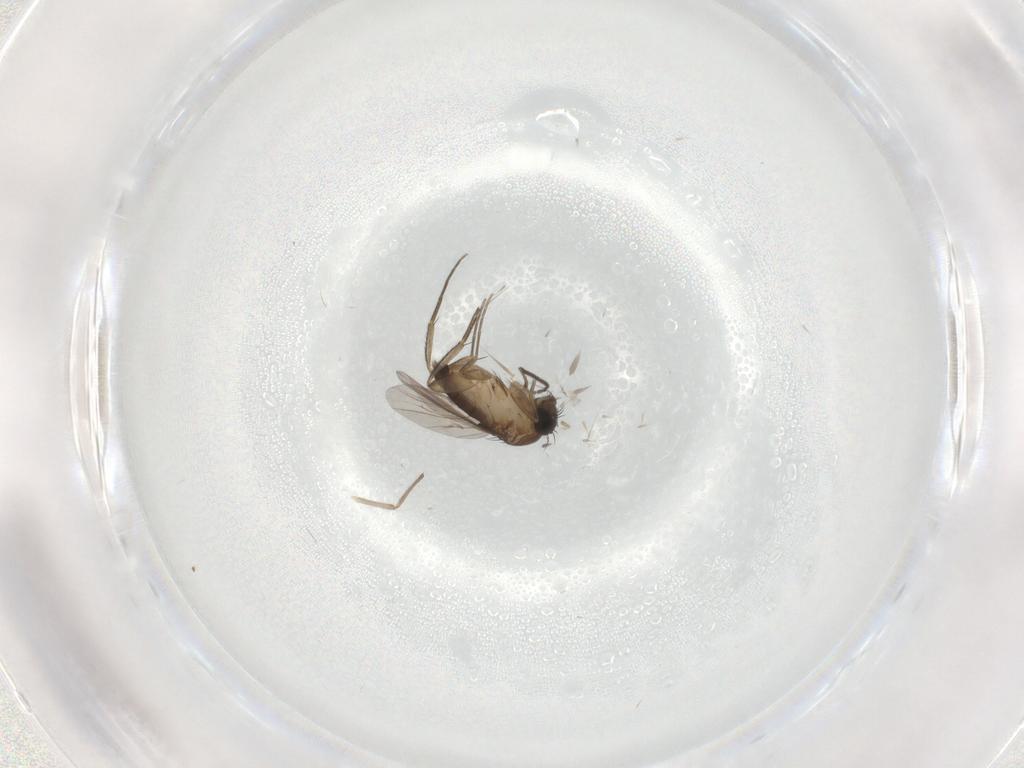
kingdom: Animalia
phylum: Arthropoda
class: Insecta
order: Diptera
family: Phoridae
